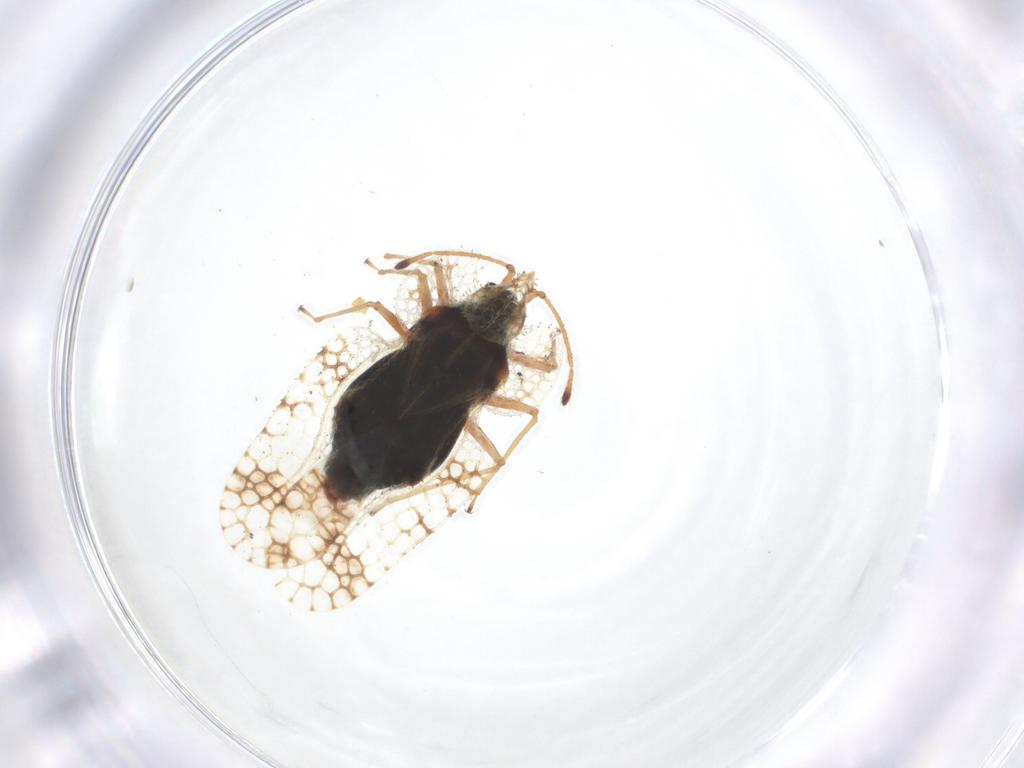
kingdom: Animalia
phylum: Arthropoda
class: Insecta
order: Hemiptera
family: Tingidae
